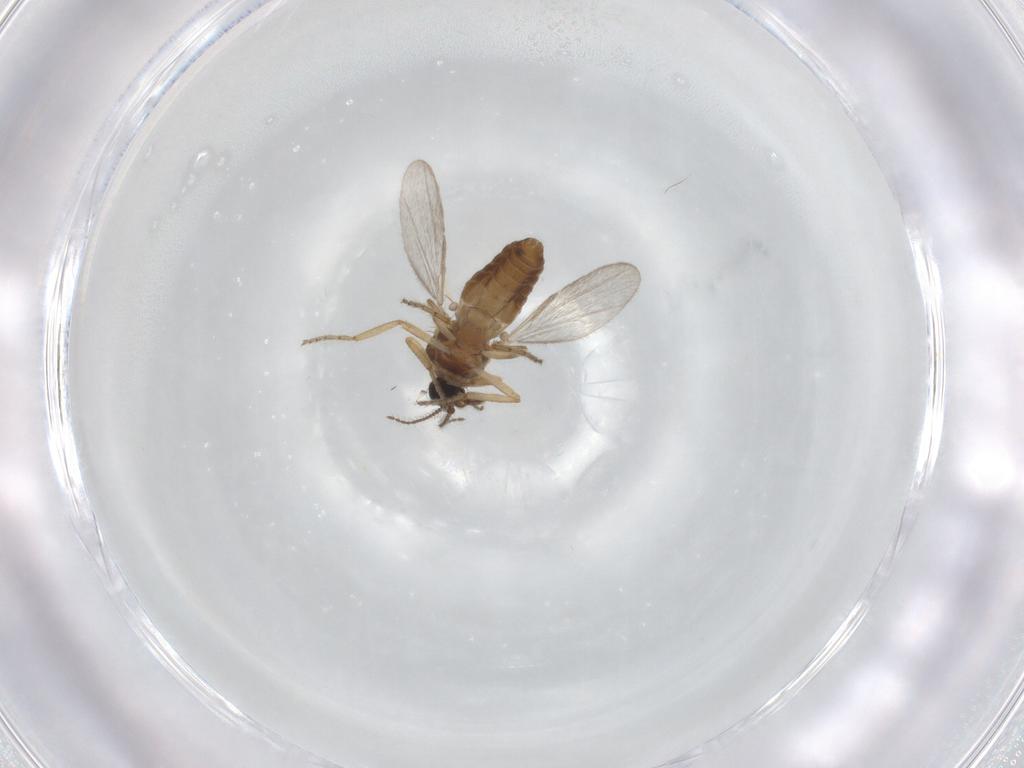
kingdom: Animalia
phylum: Arthropoda
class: Insecta
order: Diptera
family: Ceratopogonidae
